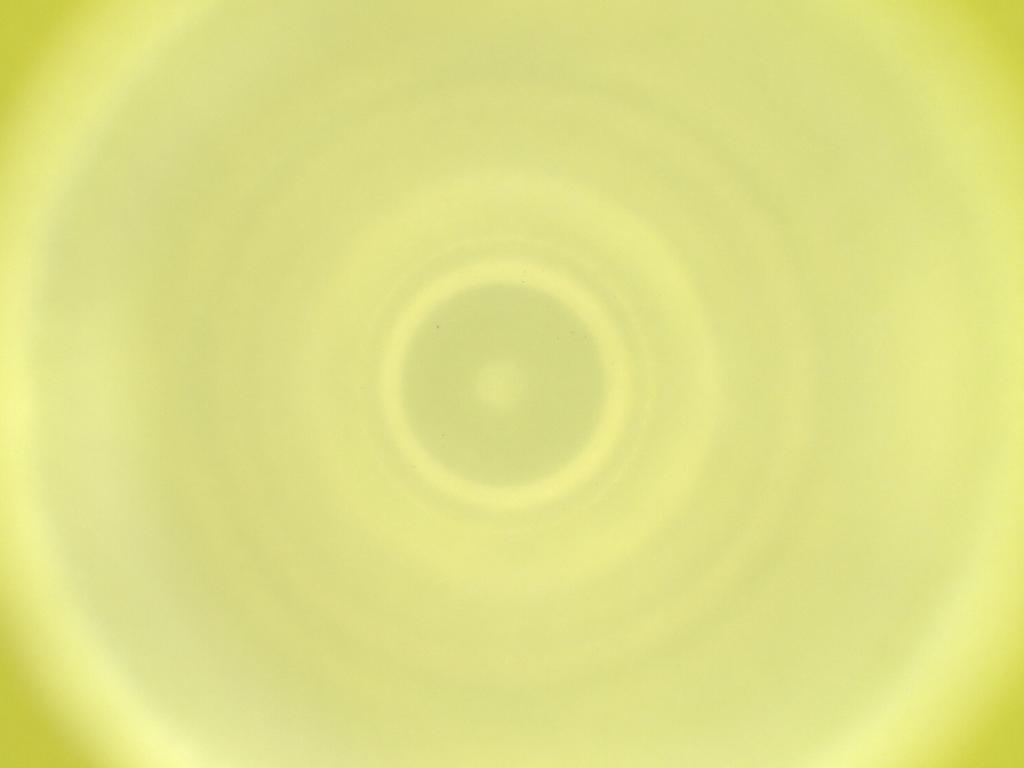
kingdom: Animalia
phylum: Arthropoda
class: Insecta
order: Diptera
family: Cecidomyiidae
